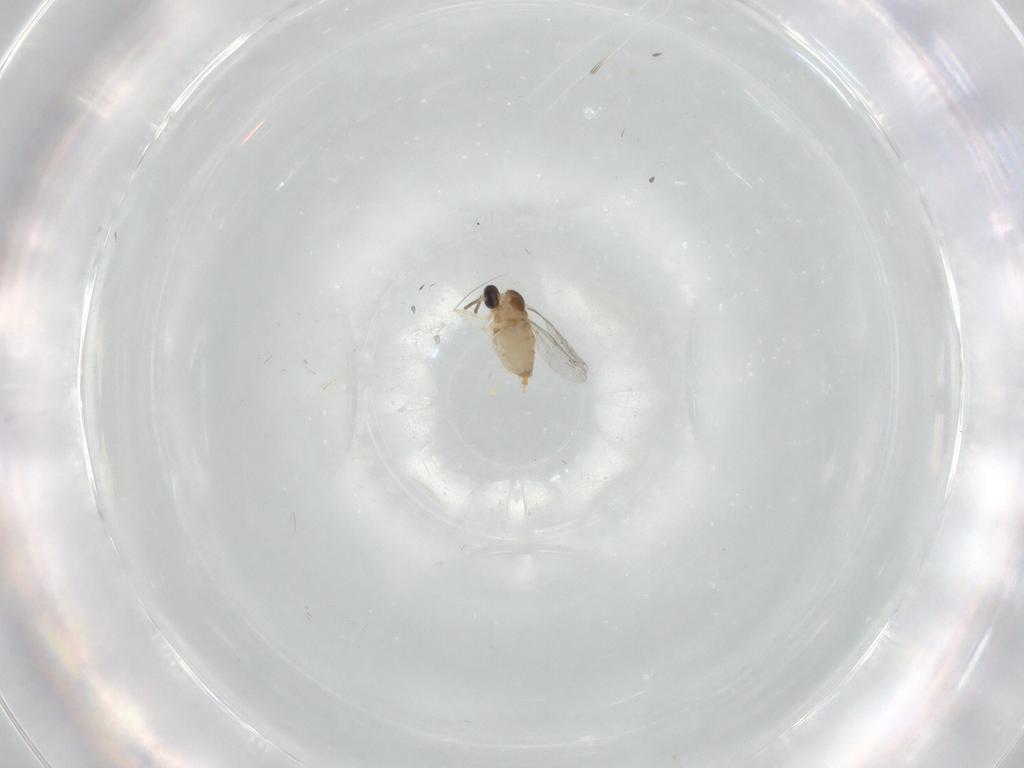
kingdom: Animalia
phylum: Arthropoda
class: Insecta
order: Diptera
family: Cecidomyiidae
